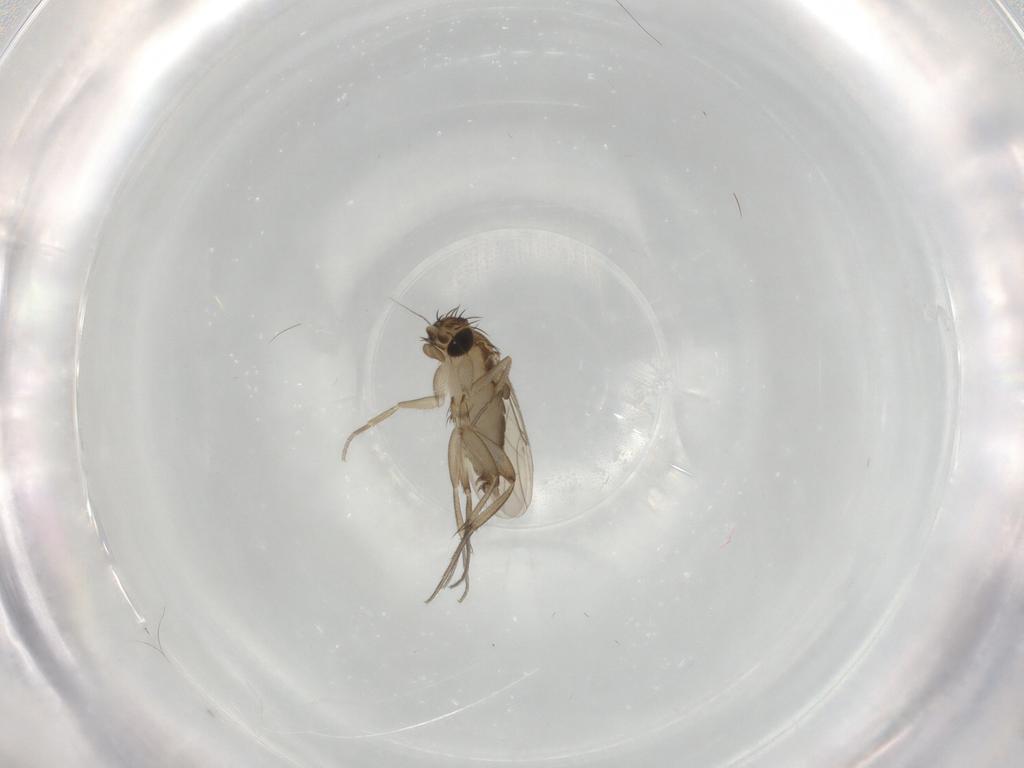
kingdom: Animalia
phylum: Arthropoda
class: Insecta
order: Diptera
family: Phoridae
